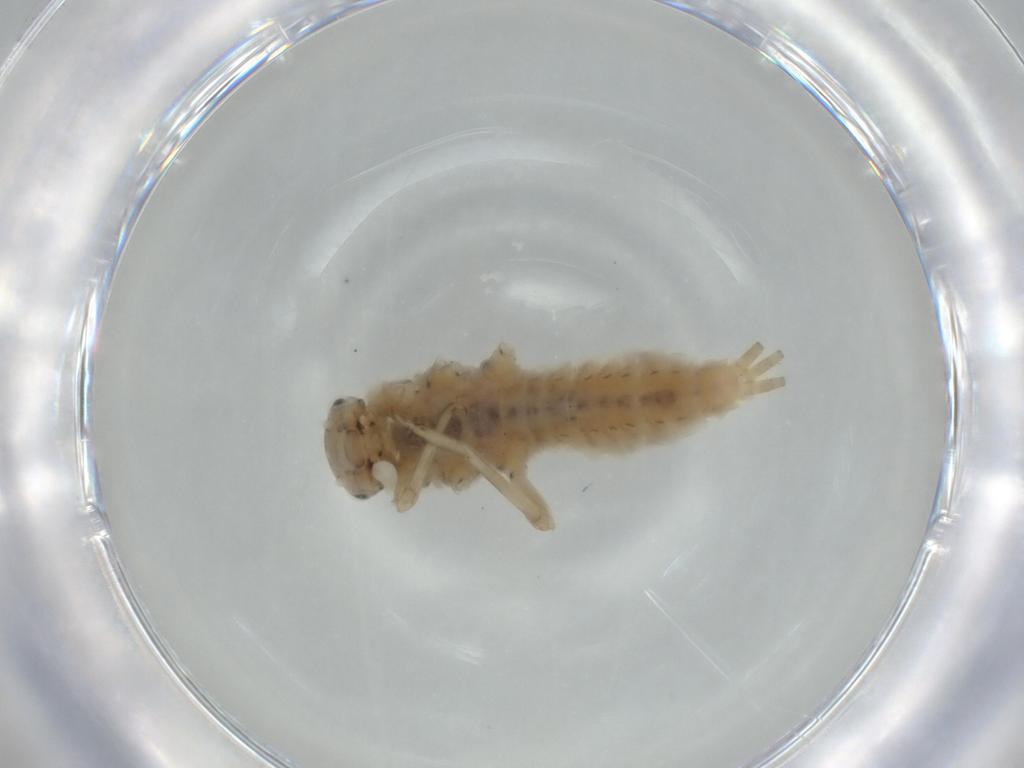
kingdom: Animalia
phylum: Arthropoda
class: Insecta
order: Ephemeroptera
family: Ephemerellidae
